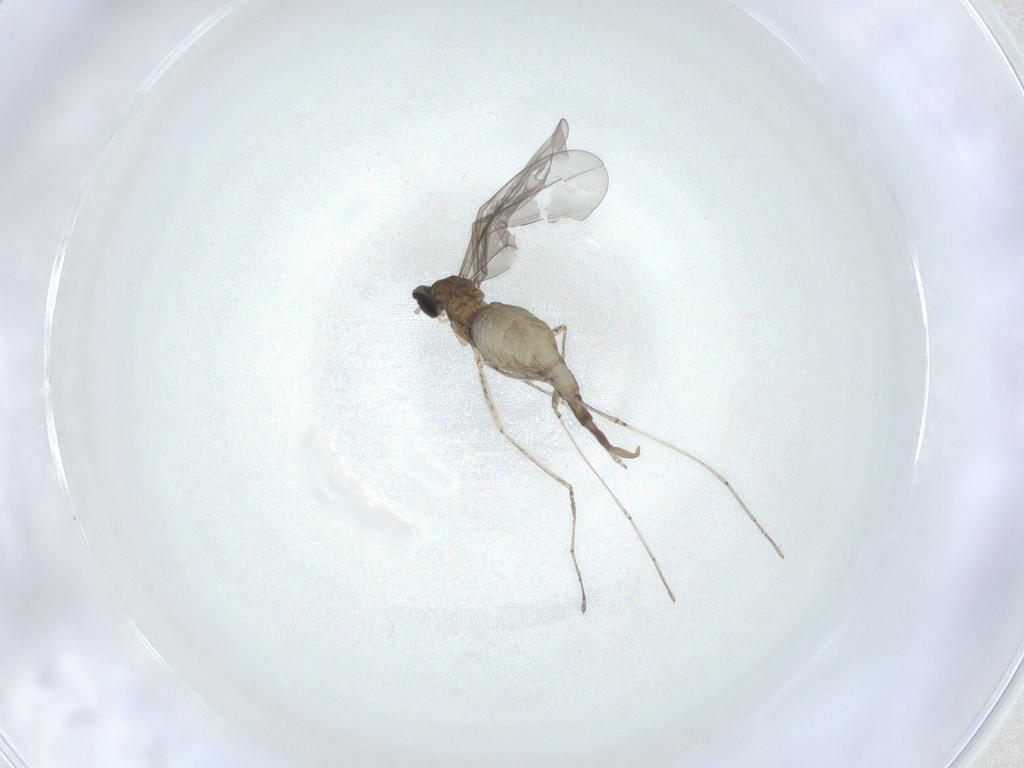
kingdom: Animalia
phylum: Arthropoda
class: Insecta
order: Diptera
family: Cecidomyiidae
